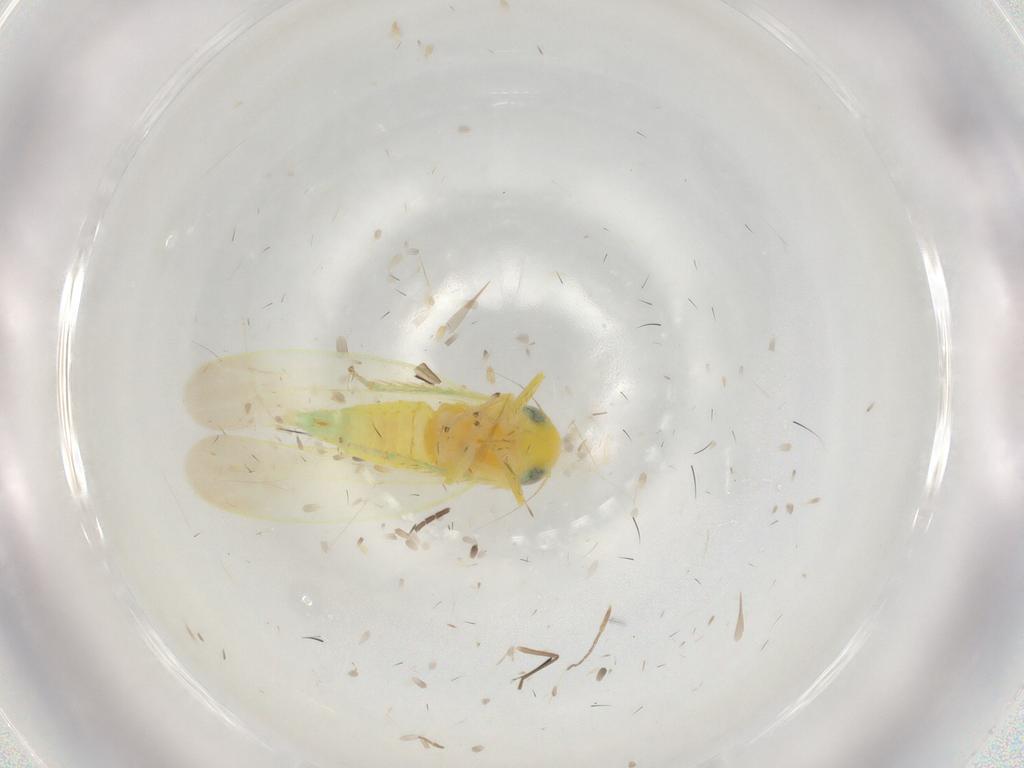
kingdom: Animalia
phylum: Arthropoda
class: Insecta
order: Hemiptera
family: Cicadellidae
